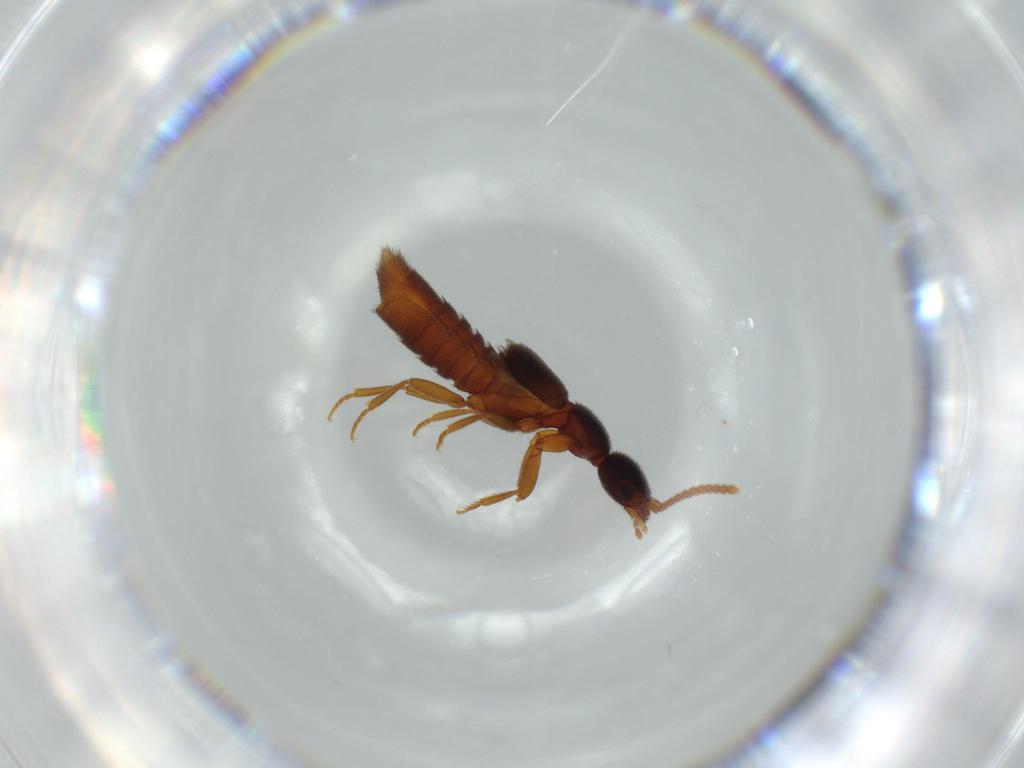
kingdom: Animalia
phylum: Arthropoda
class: Insecta
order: Coleoptera
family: Staphylinidae
